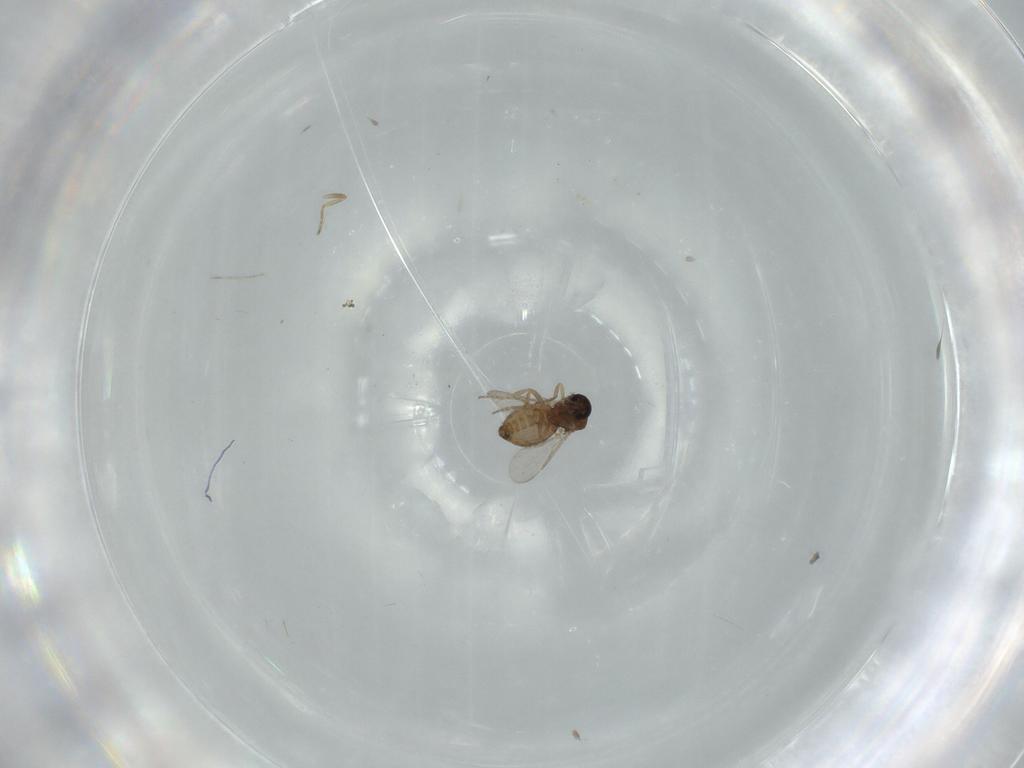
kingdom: Animalia
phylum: Arthropoda
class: Insecta
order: Diptera
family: Ceratopogonidae
